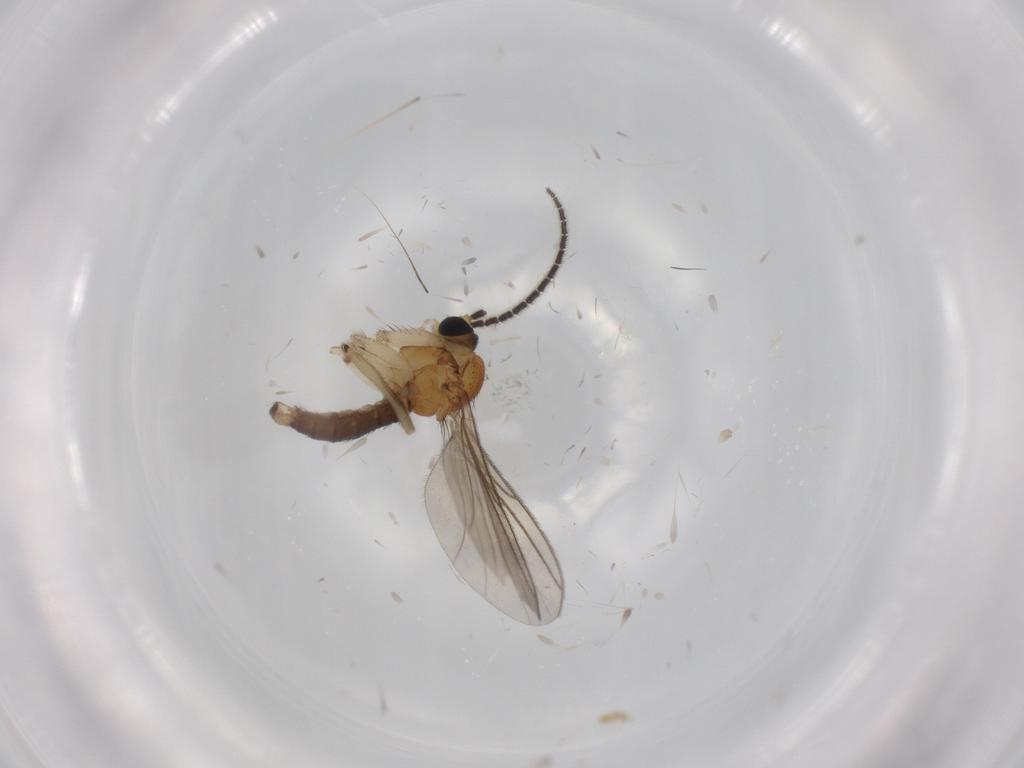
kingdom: Animalia
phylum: Arthropoda
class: Insecta
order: Diptera
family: Sciaridae
